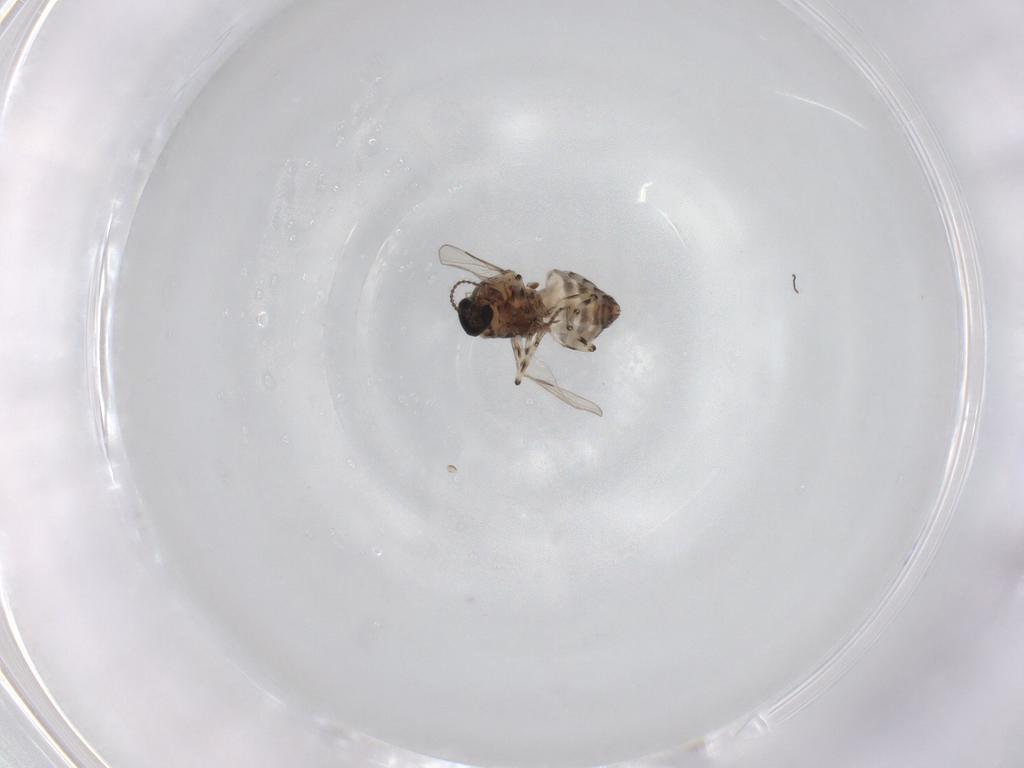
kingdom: Animalia
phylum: Arthropoda
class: Insecta
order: Diptera
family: Ceratopogonidae
